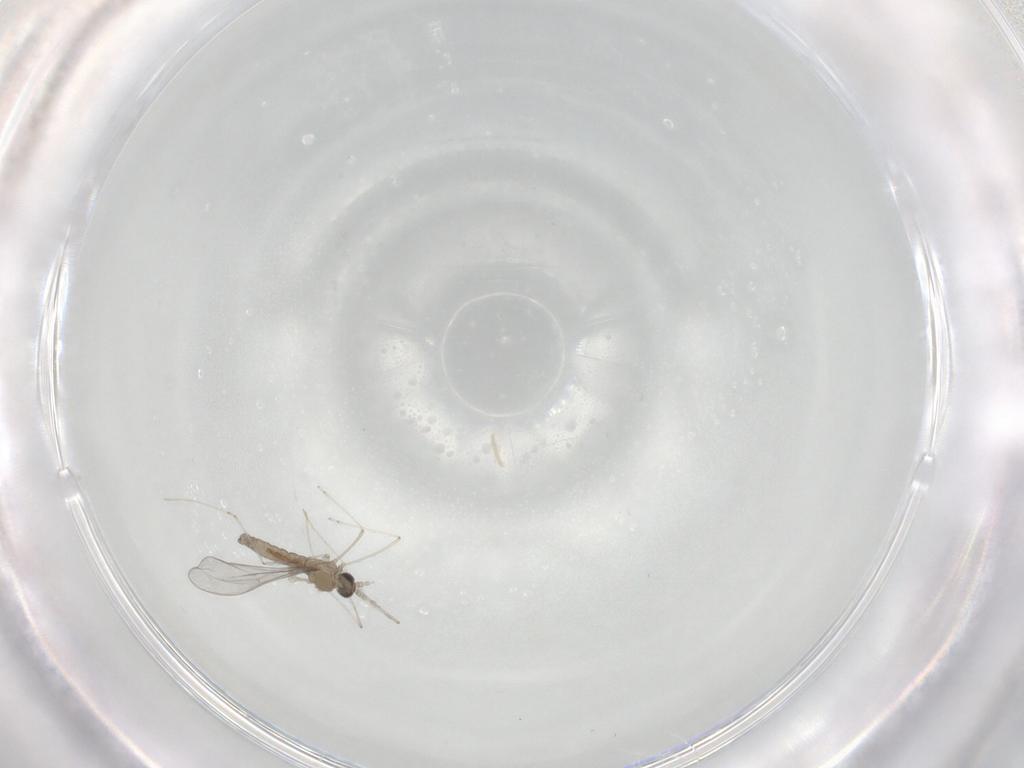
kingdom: Animalia
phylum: Arthropoda
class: Insecta
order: Diptera
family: Cecidomyiidae
